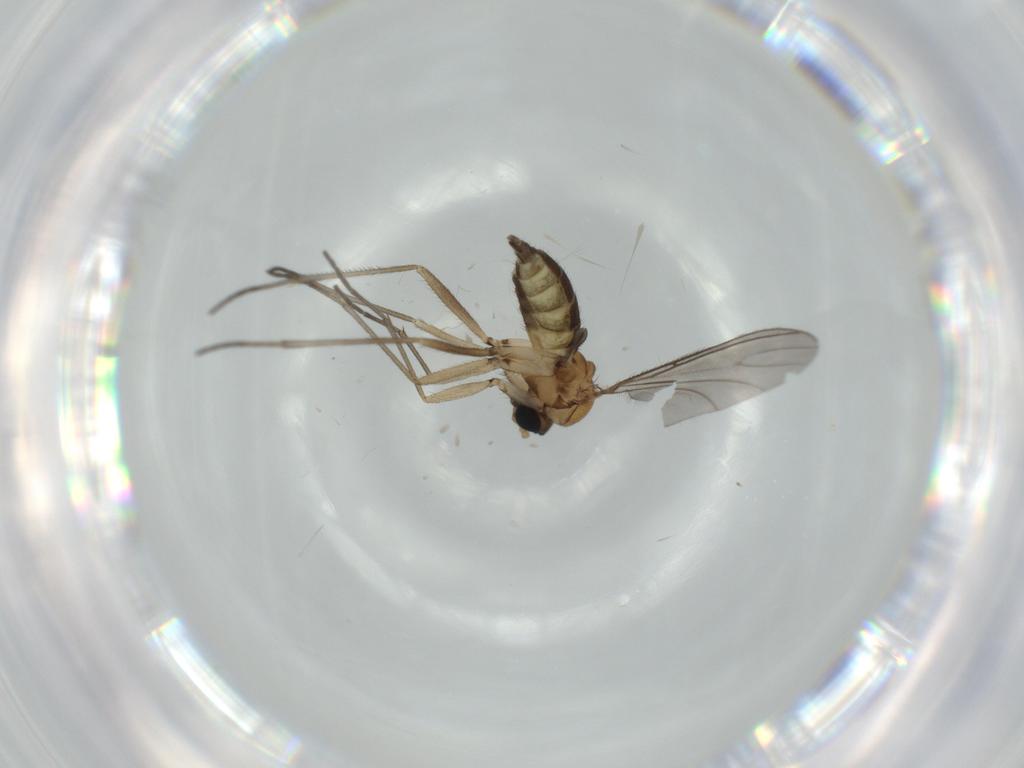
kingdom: Animalia
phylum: Arthropoda
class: Insecta
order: Diptera
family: Sciaridae
